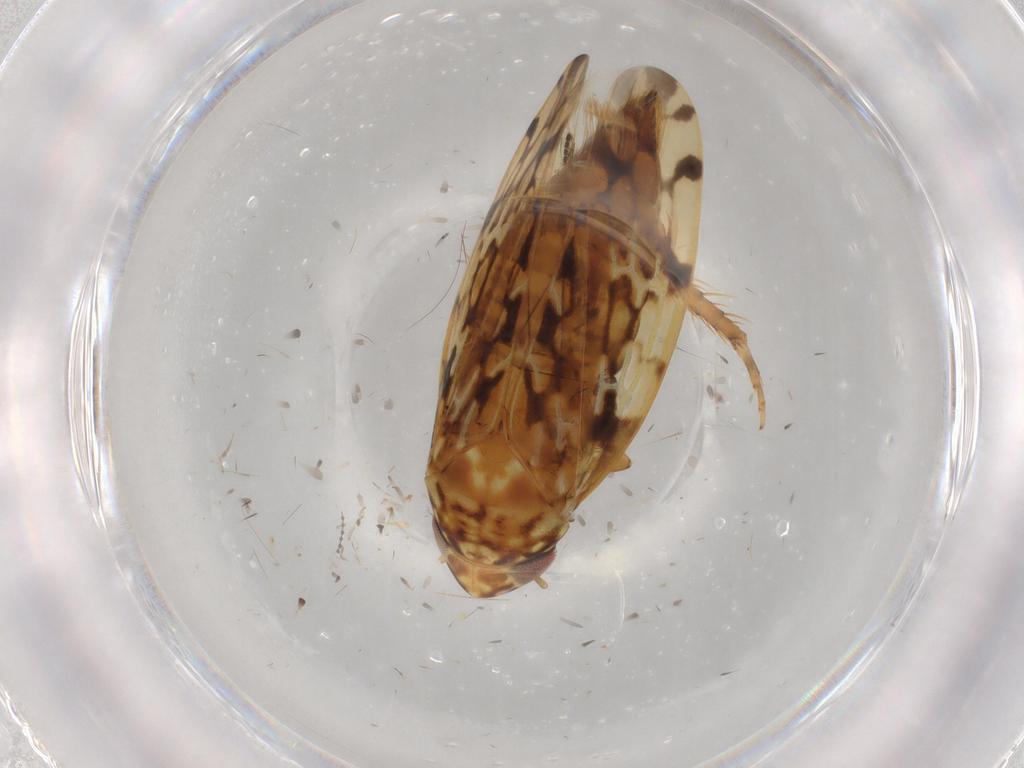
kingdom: Animalia
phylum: Arthropoda
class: Insecta
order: Hemiptera
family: Cicadellidae
